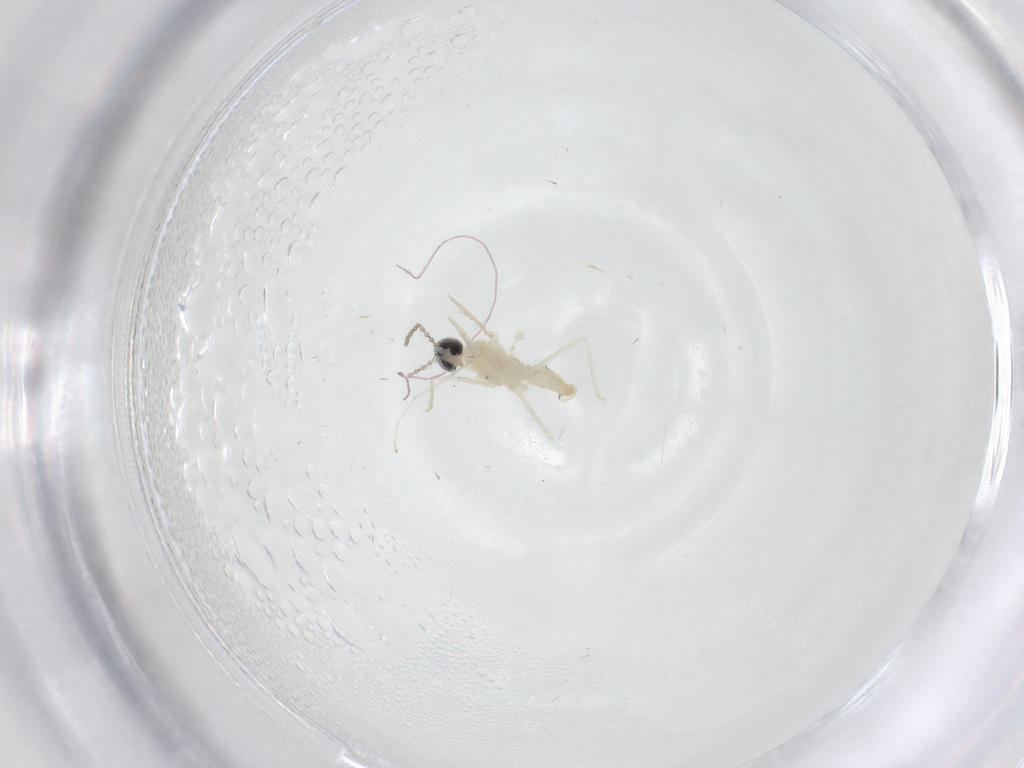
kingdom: Animalia
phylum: Arthropoda
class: Insecta
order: Diptera
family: Cecidomyiidae
